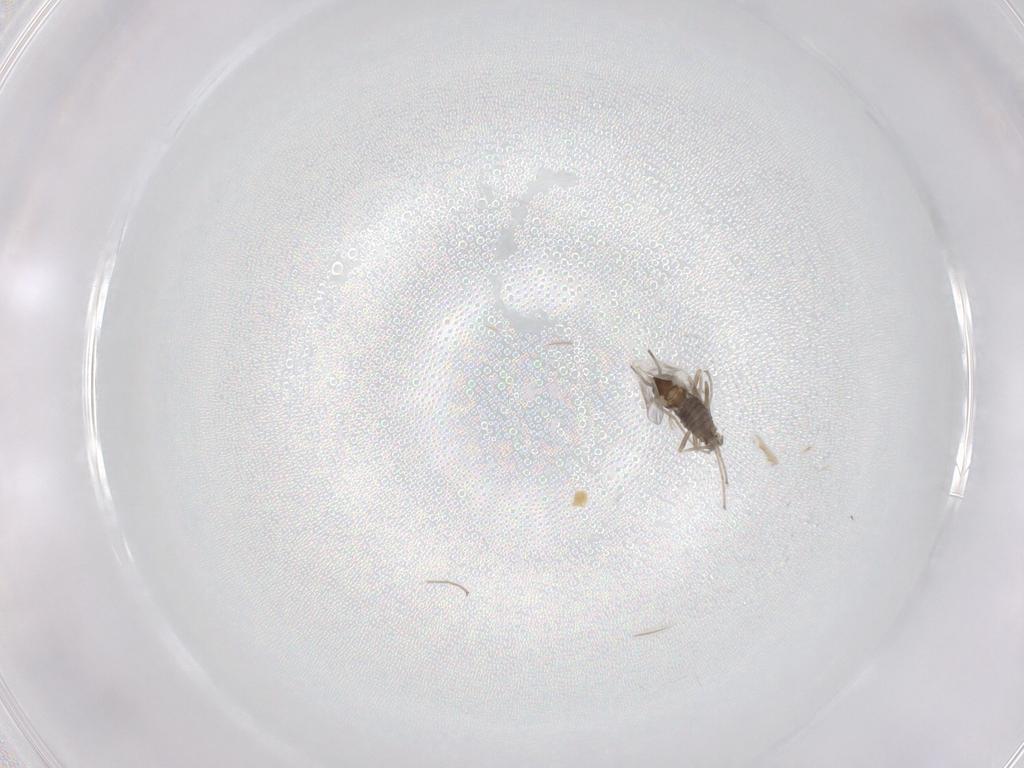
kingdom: Animalia
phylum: Arthropoda
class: Insecta
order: Diptera
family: Cecidomyiidae
